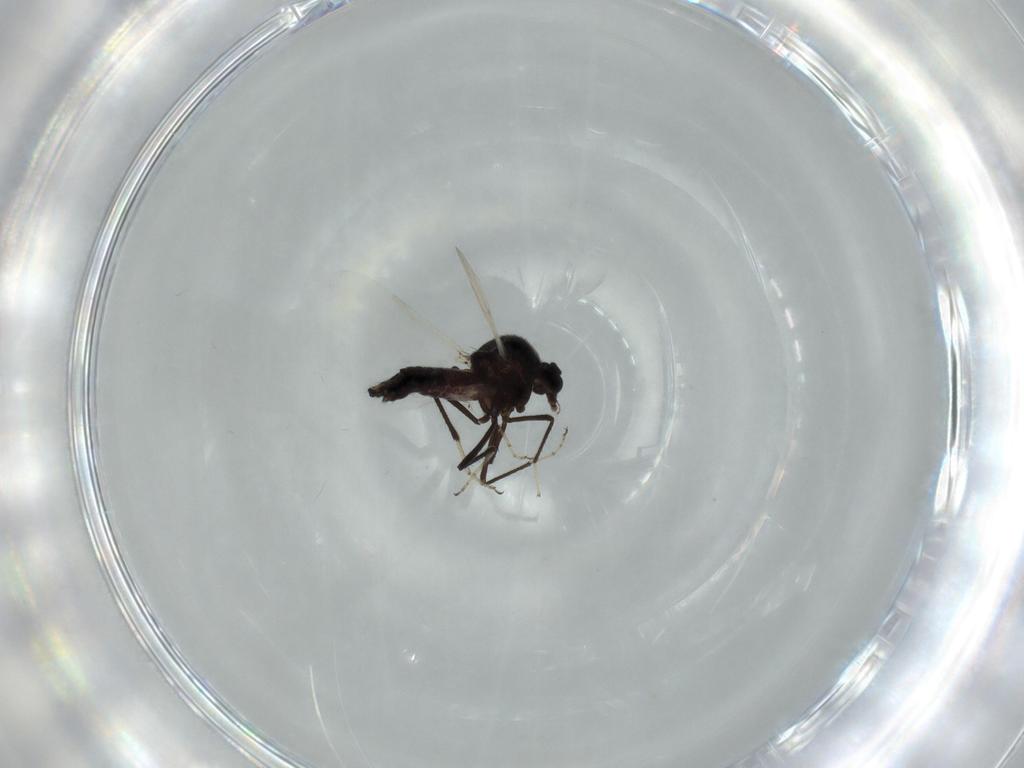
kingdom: Animalia
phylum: Arthropoda
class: Insecta
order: Diptera
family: Ceratopogonidae
